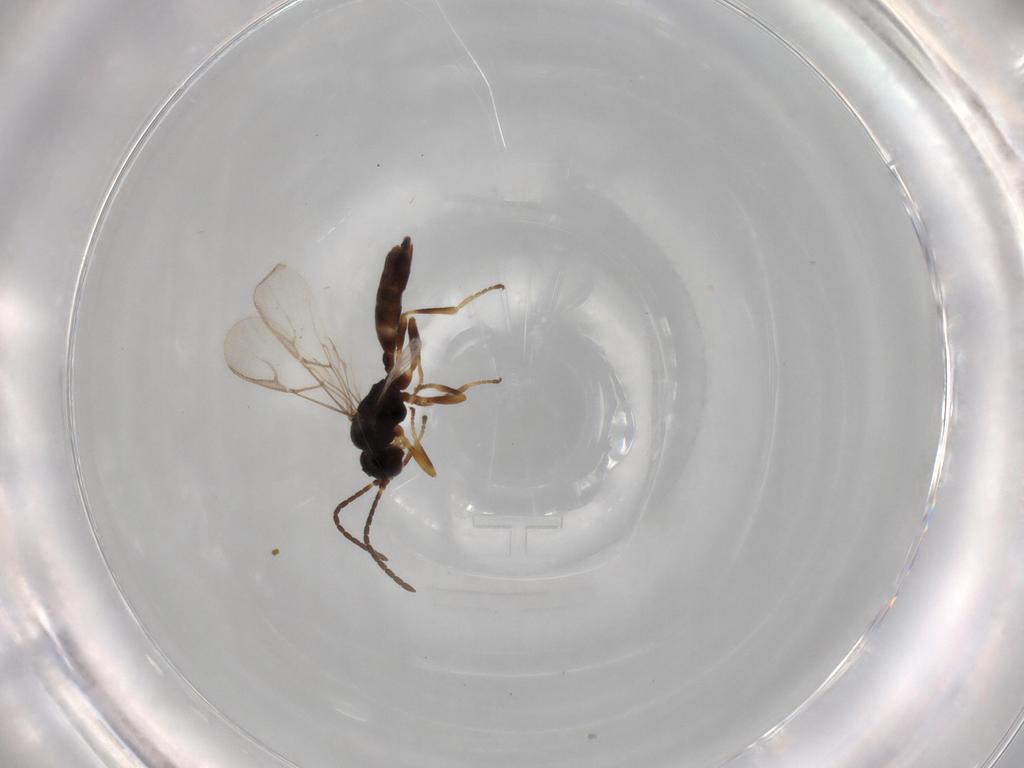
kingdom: Animalia
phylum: Arthropoda
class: Insecta
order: Hymenoptera
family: Braconidae
